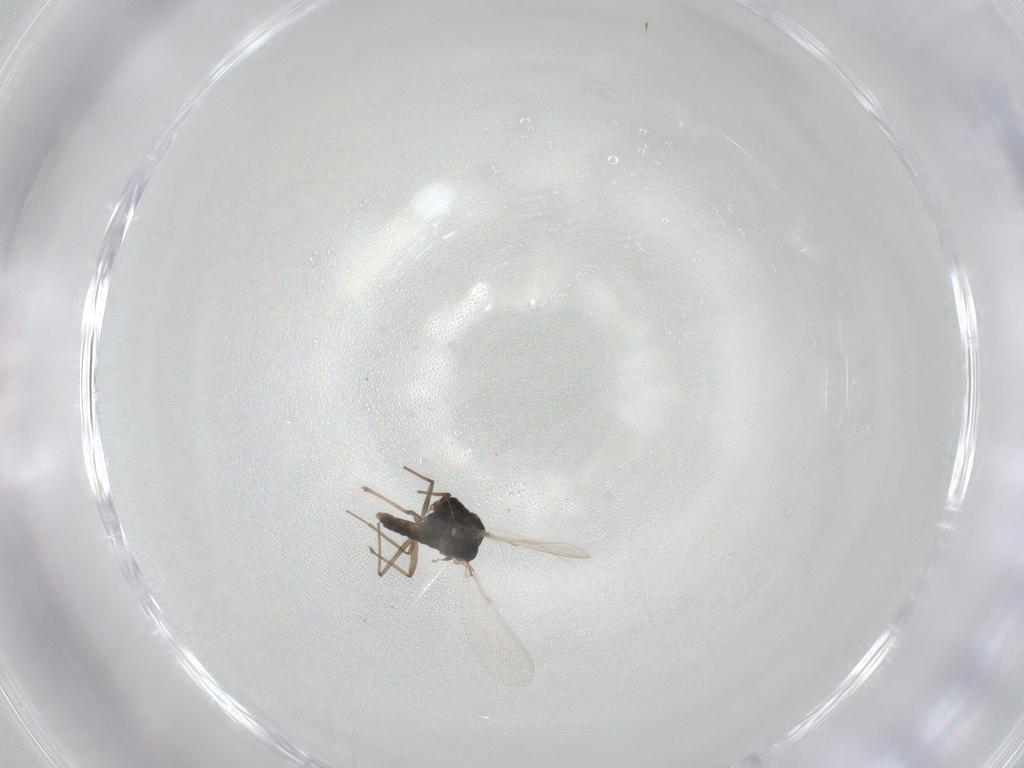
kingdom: Animalia
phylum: Arthropoda
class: Insecta
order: Diptera
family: Chironomidae
